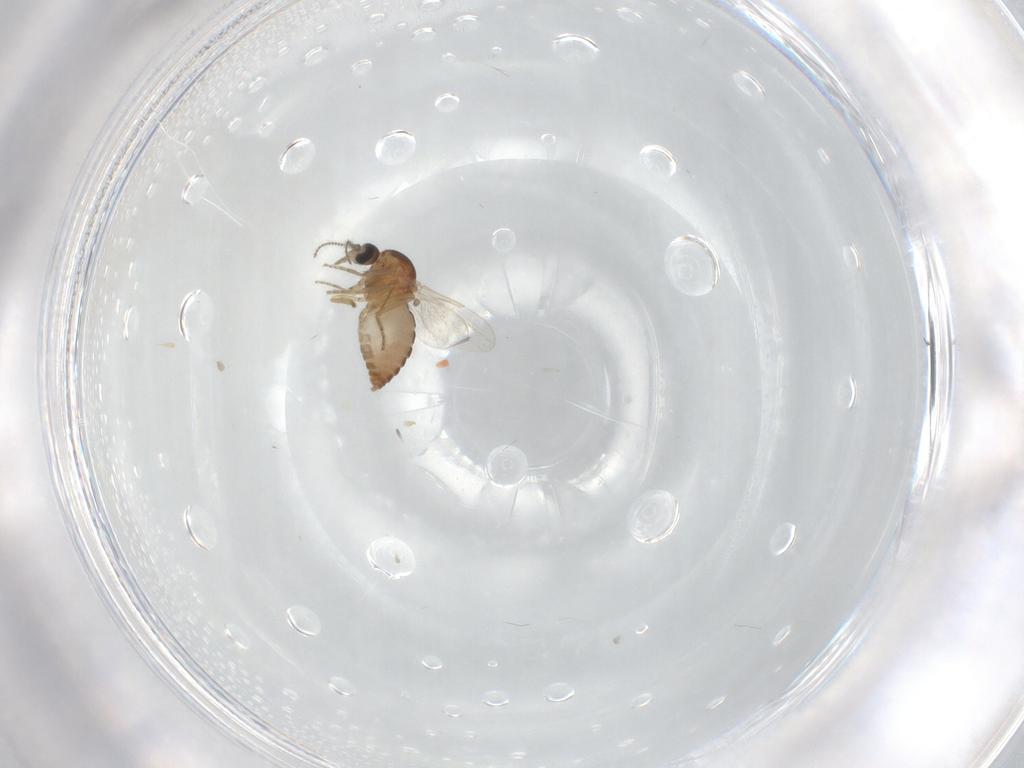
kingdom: Animalia
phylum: Arthropoda
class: Insecta
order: Diptera
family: Ceratopogonidae
